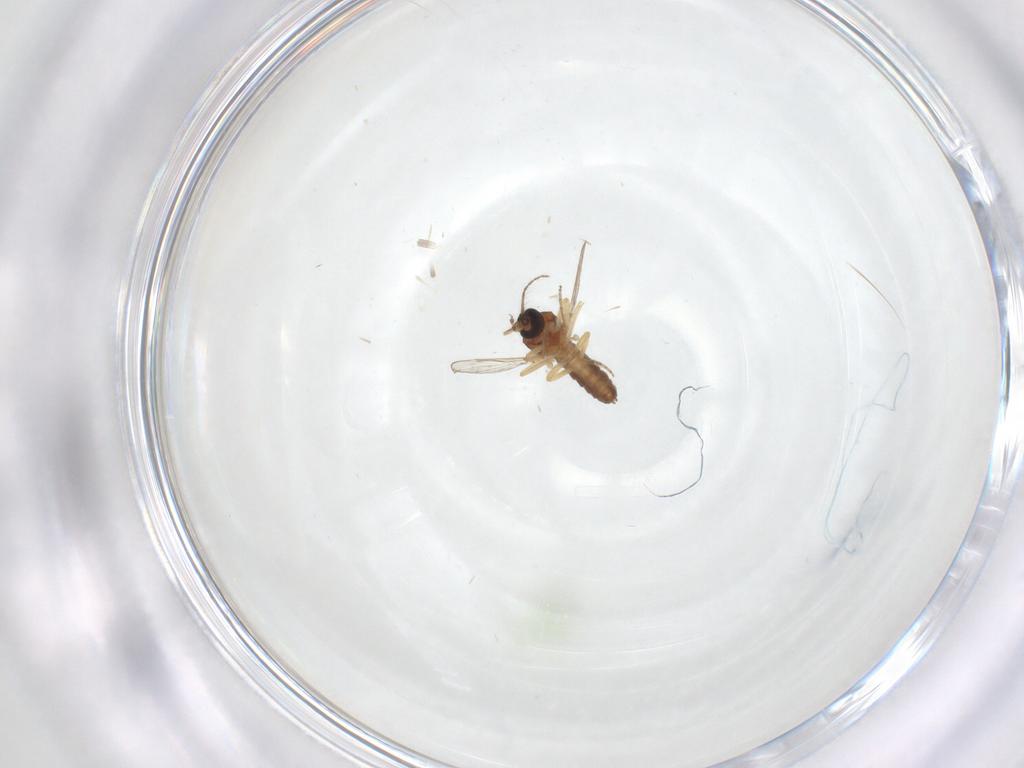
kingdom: Animalia
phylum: Arthropoda
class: Insecta
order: Diptera
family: Ceratopogonidae
